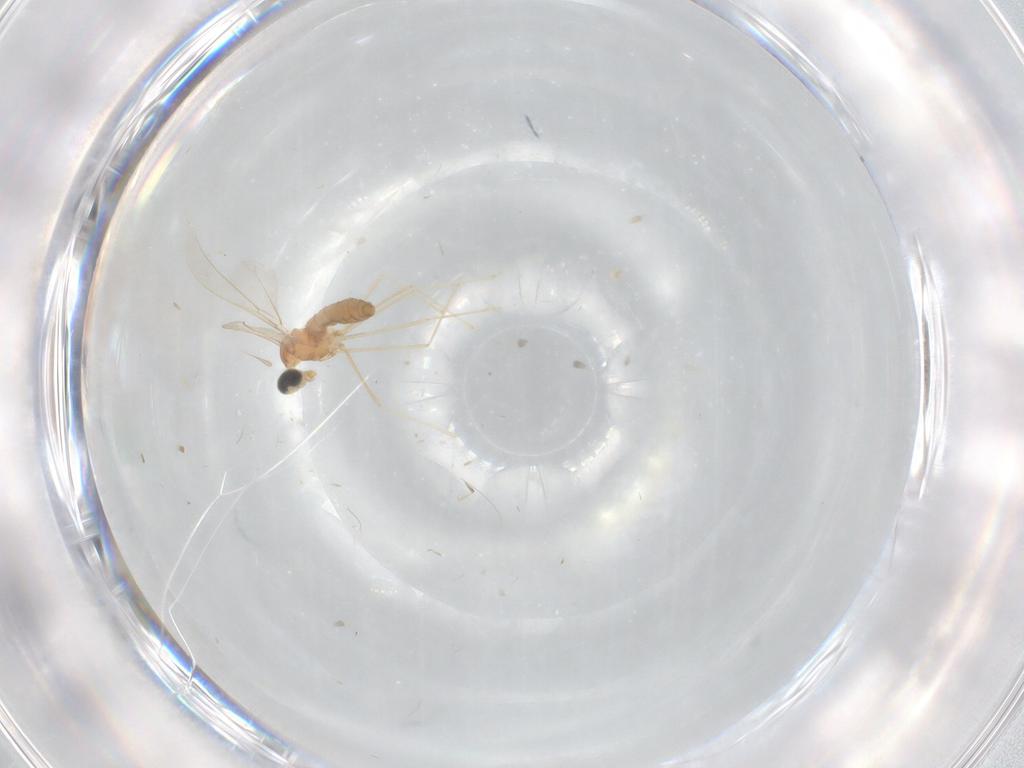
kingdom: Animalia
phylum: Arthropoda
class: Insecta
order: Diptera
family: Cecidomyiidae
